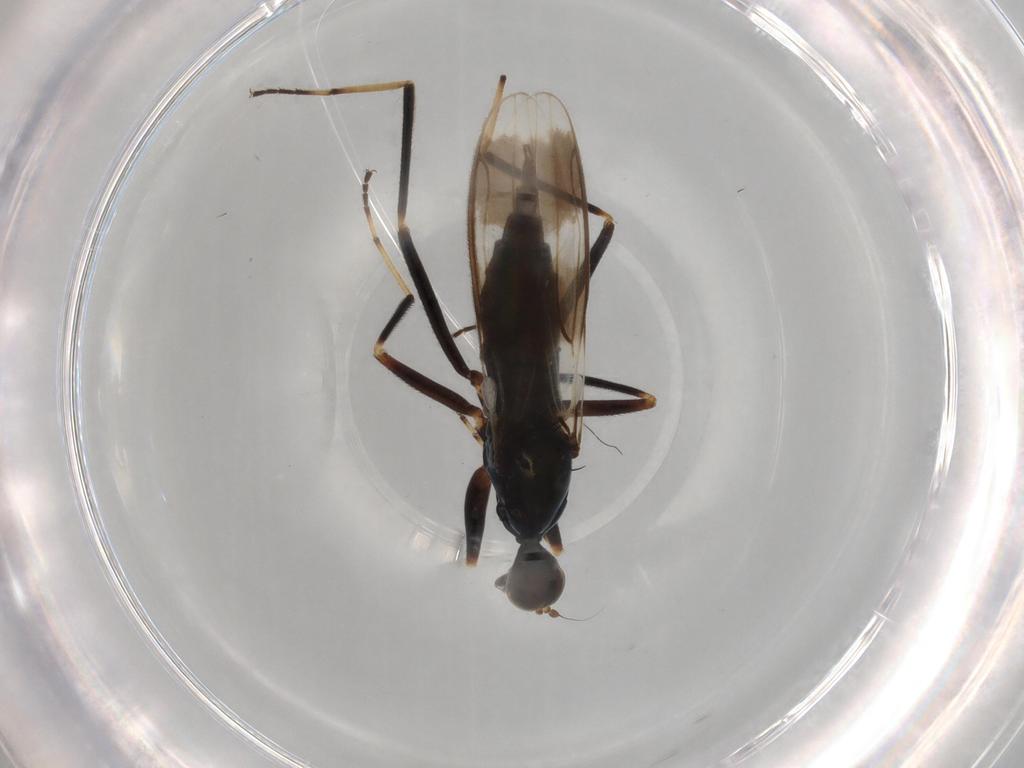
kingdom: Animalia
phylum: Arthropoda
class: Insecta
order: Diptera
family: Hybotidae
